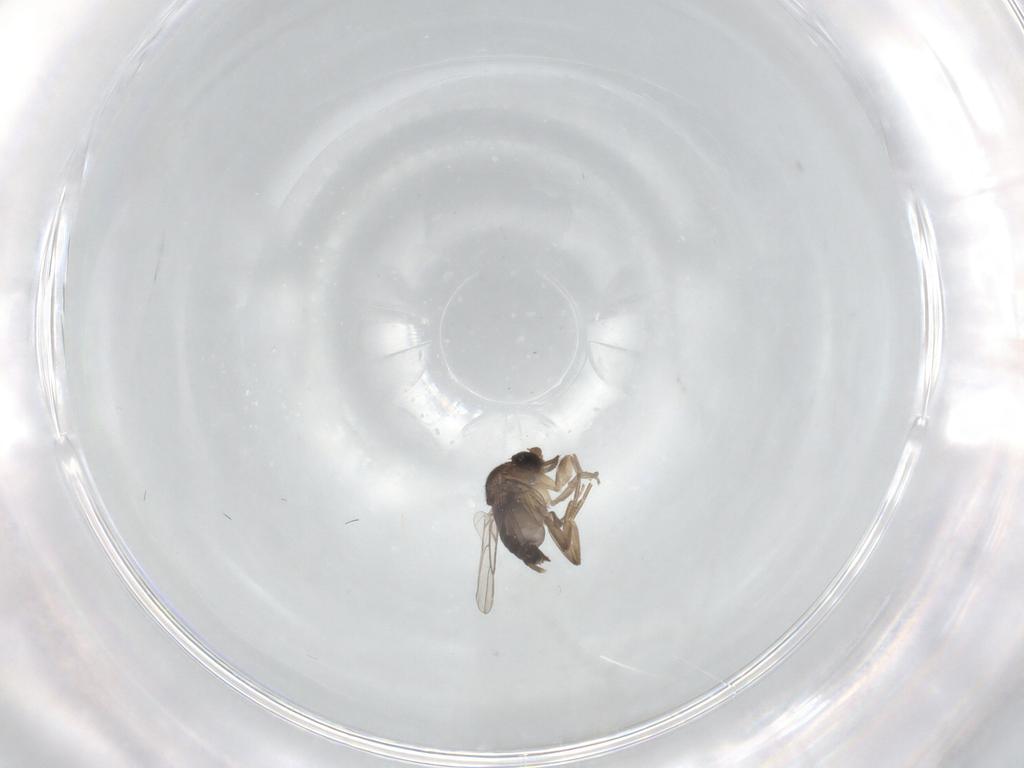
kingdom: Animalia
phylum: Arthropoda
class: Insecta
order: Diptera
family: Phoridae
